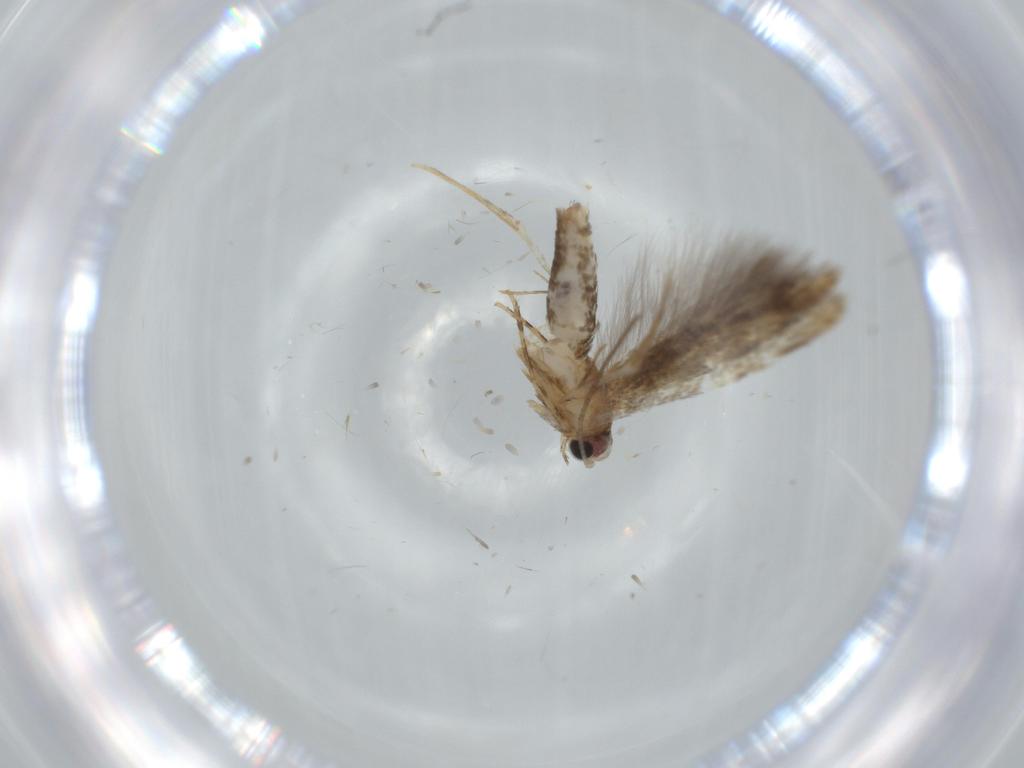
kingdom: Animalia
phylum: Arthropoda
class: Insecta
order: Lepidoptera
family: Tineidae
